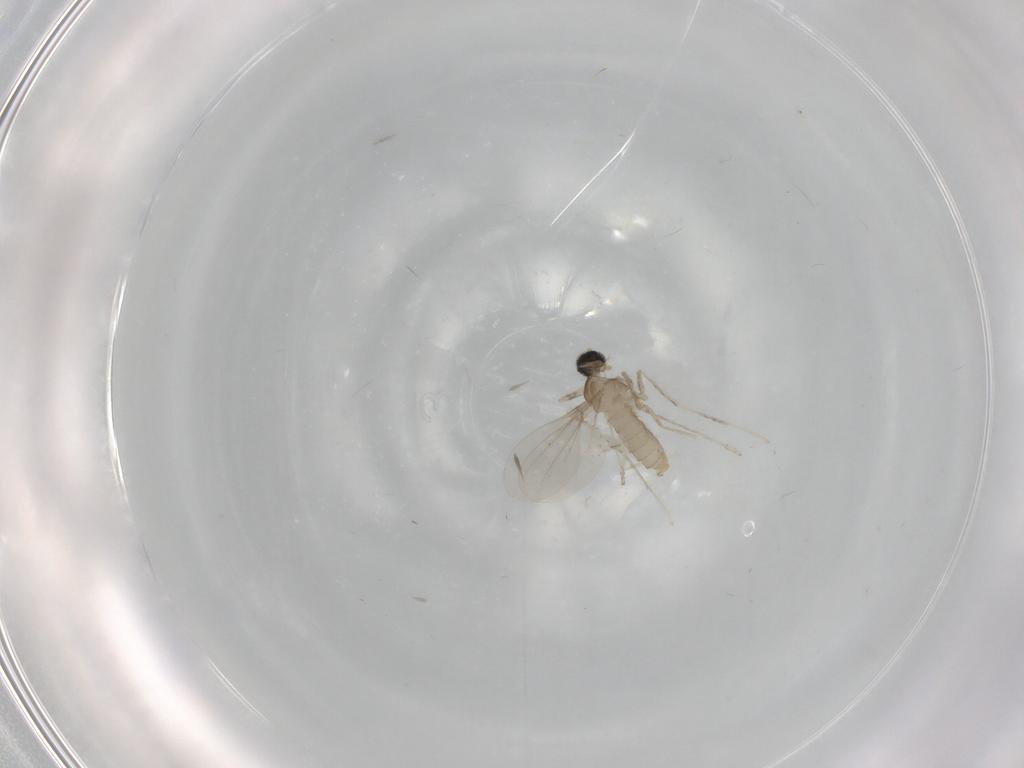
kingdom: Animalia
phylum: Arthropoda
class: Insecta
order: Diptera
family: Cecidomyiidae
